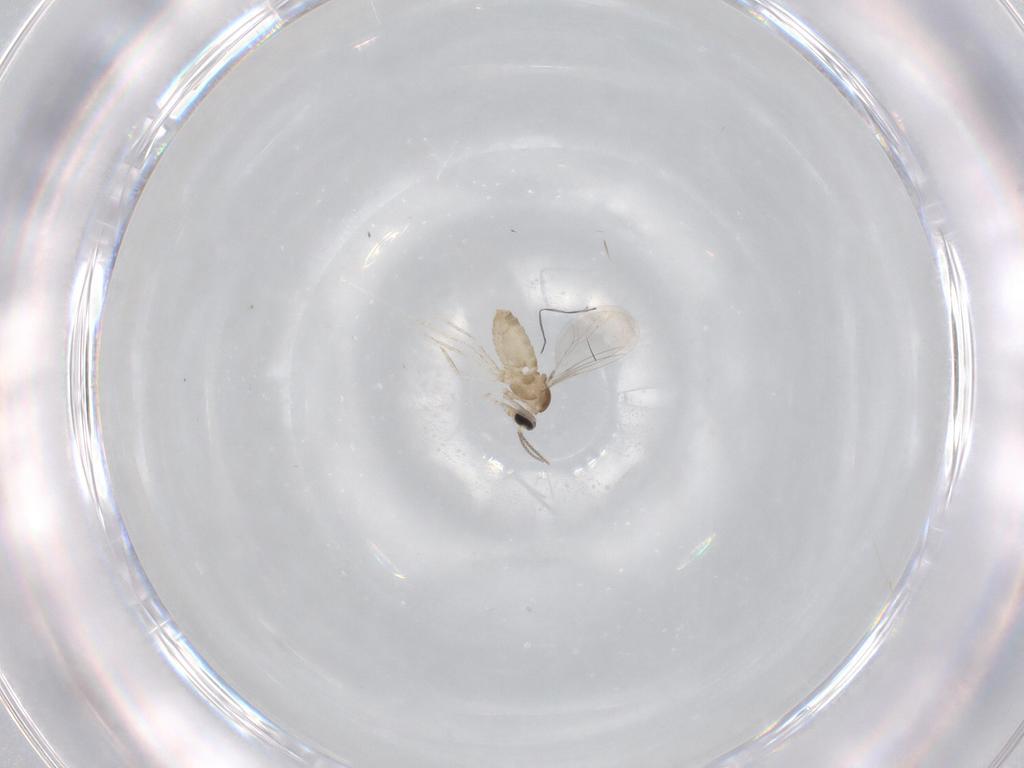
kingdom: Animalia
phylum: Arthropoda
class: Insecta
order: Diptera
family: Cecidomyiidae
